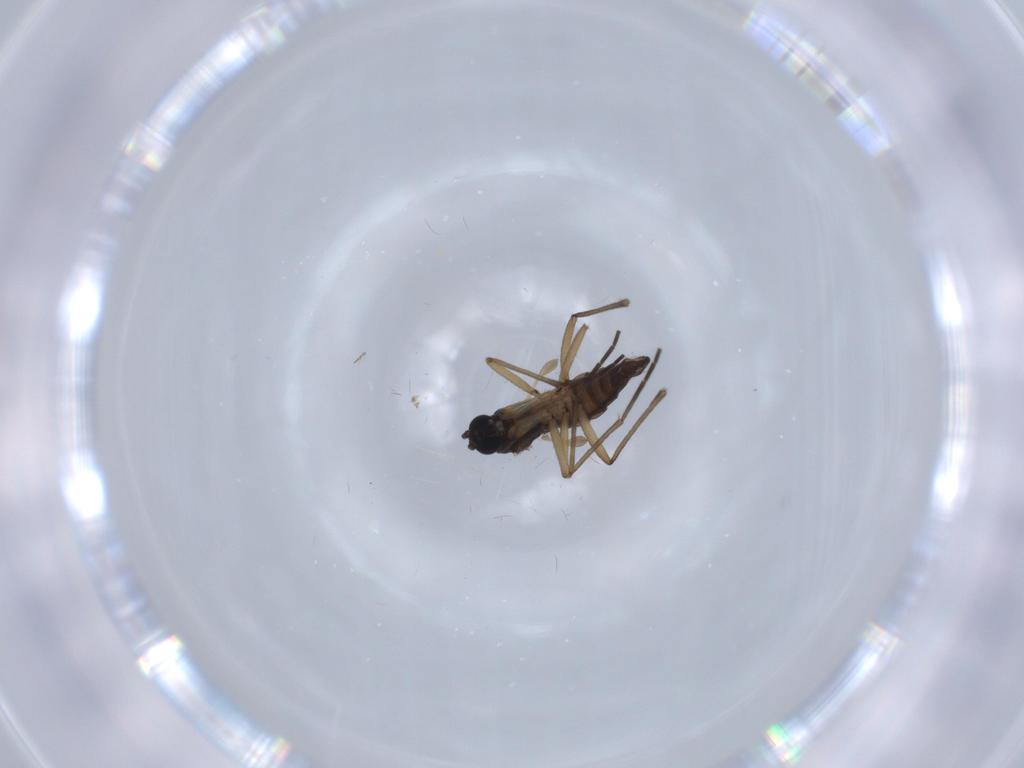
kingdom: Animalia
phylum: Arthropoda
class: Insecta
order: Diptera
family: Sciaridae
